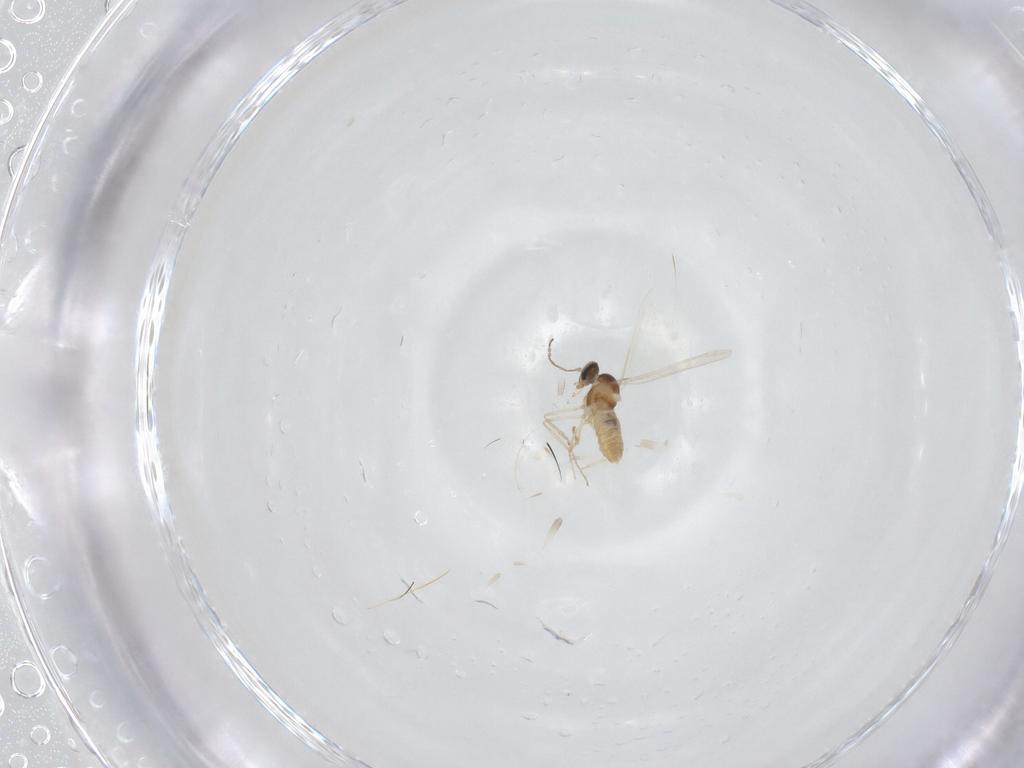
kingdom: Animalia
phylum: Arthropoda
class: Insecta
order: Diptera
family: Cecidomyiidae
